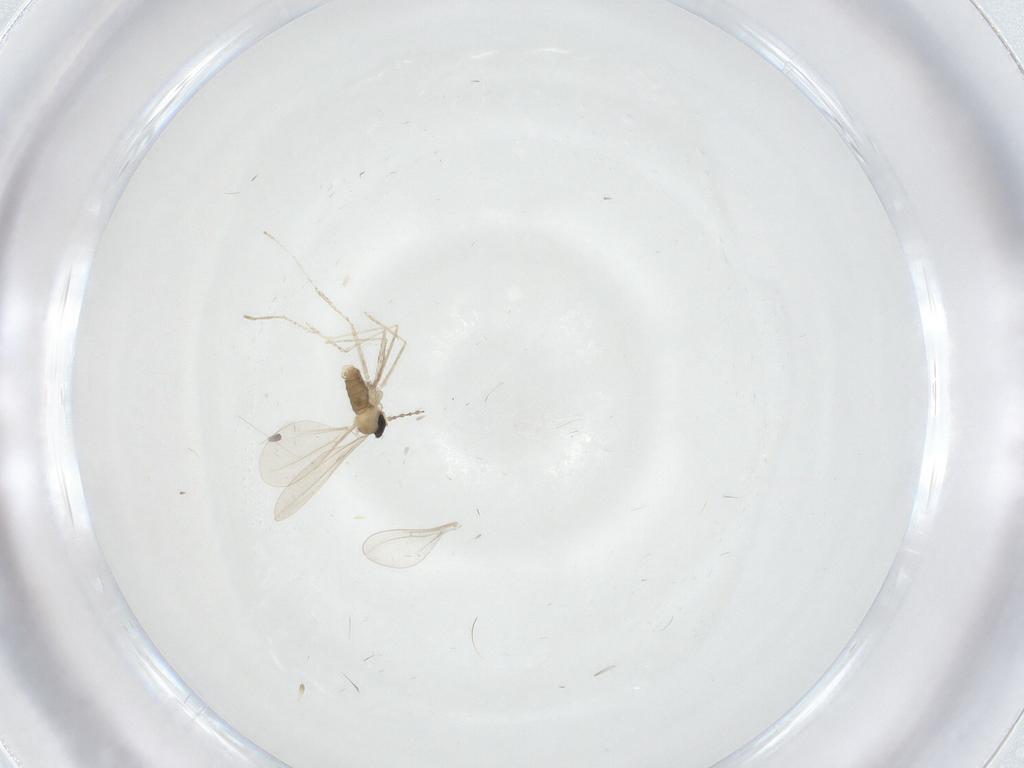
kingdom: Animalia
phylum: Arthropoda
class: Insecta
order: Diptera
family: Cecidomyiidae
